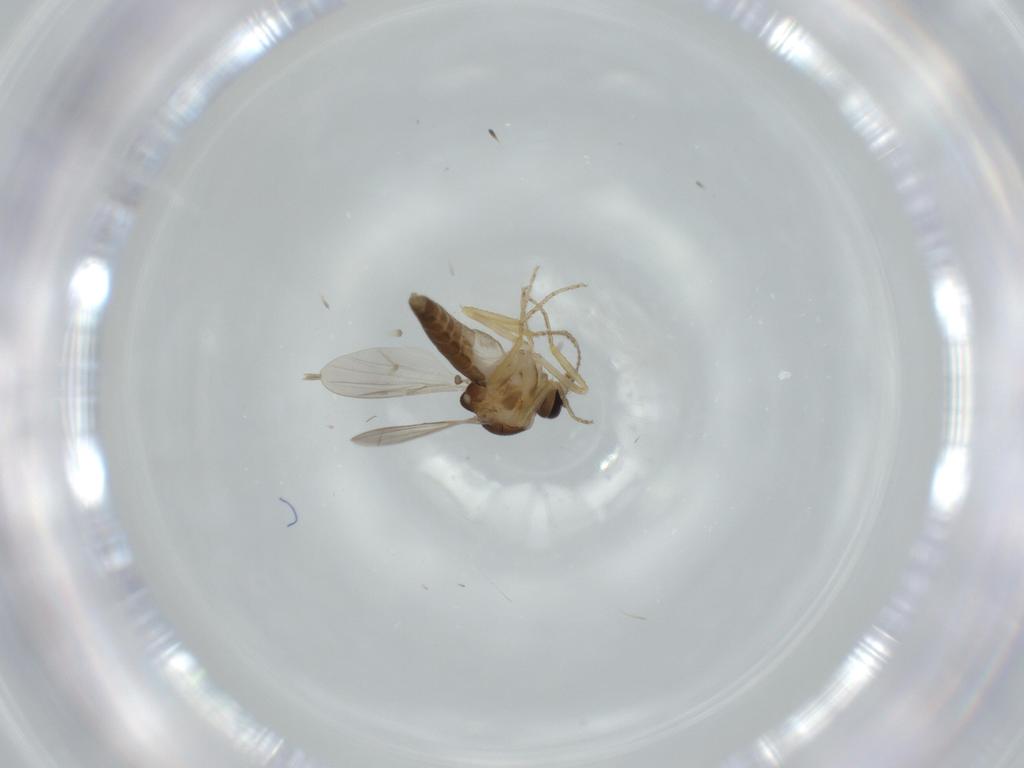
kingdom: Animalia
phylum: Arthropoda
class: Insecta
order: Diptera
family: Ceratopogonidae
